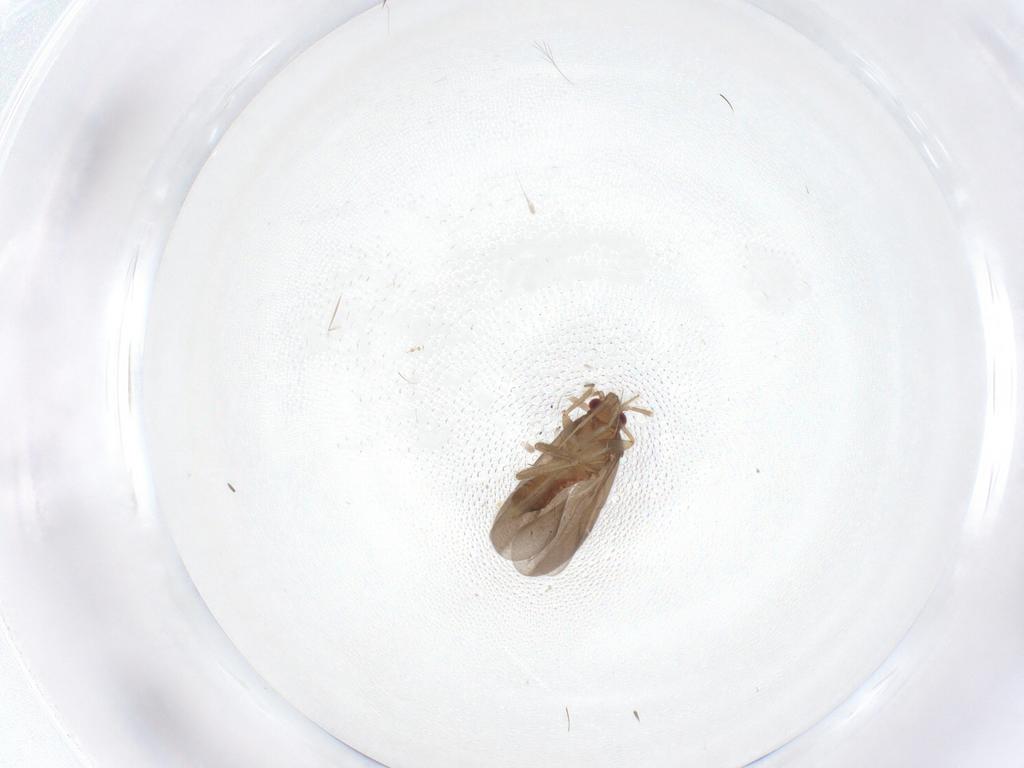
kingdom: Animalia
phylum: Arthropoda
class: Insecta
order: Hemiptera
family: Ceratocombidae
